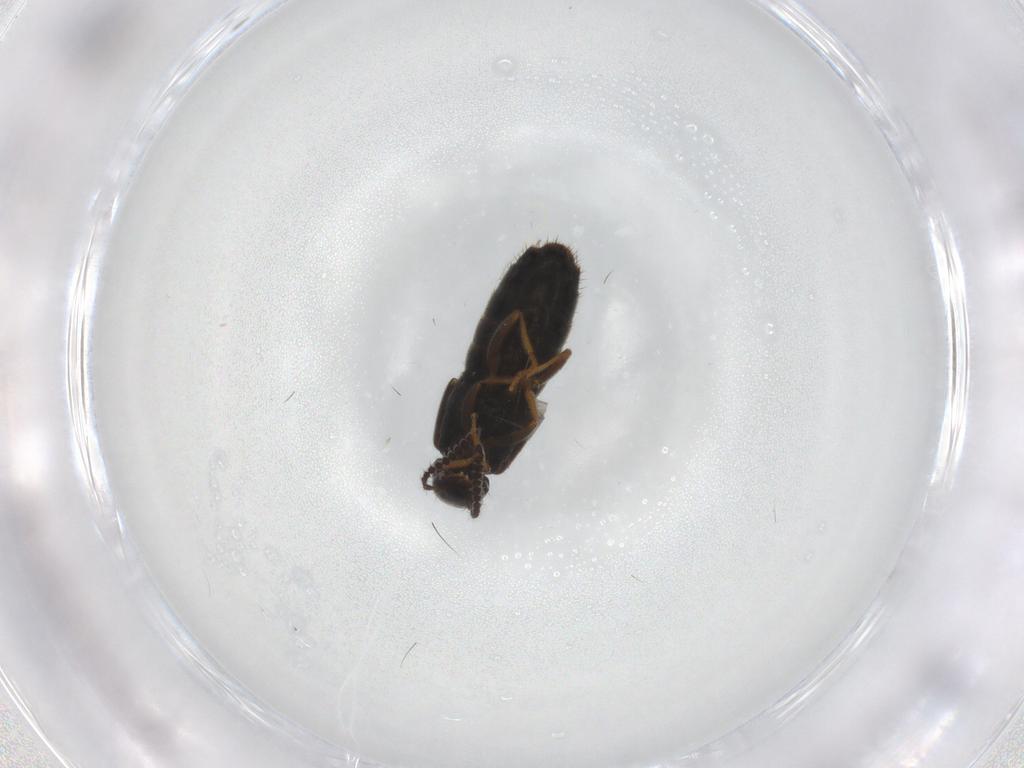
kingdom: Animalia
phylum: Arthropoda
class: Insecta
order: Coleoptera
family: Staphylinidae
